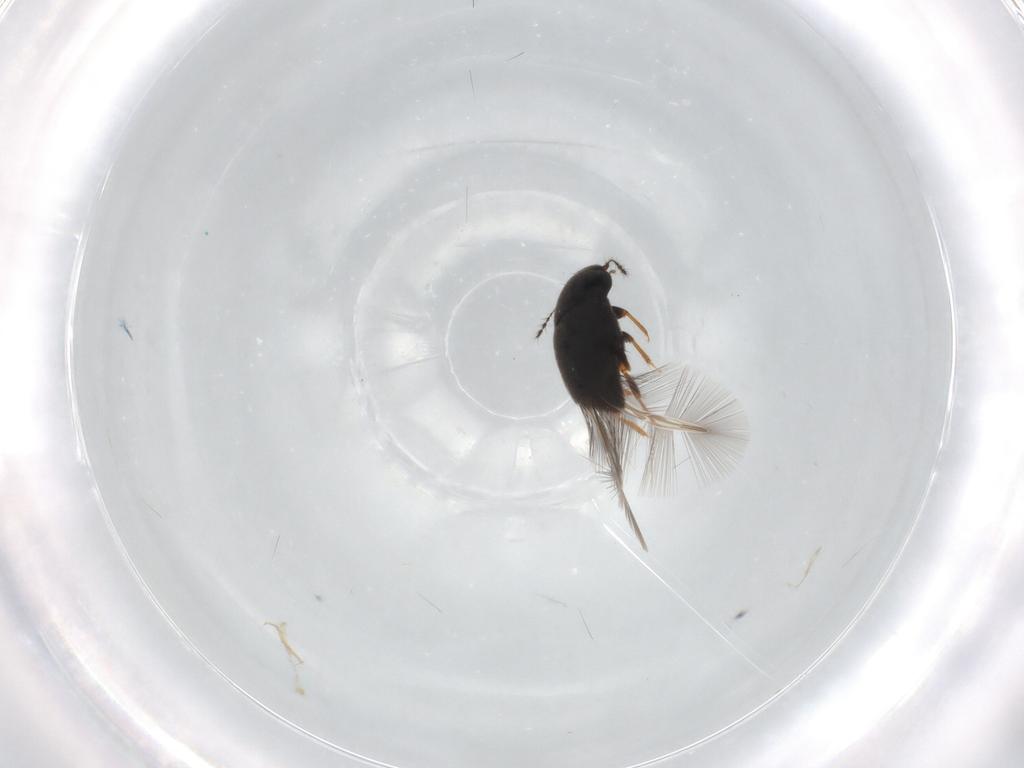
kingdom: Animalia
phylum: Arthropoda
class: Insecta
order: Coleoptera
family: Ptiliidae
